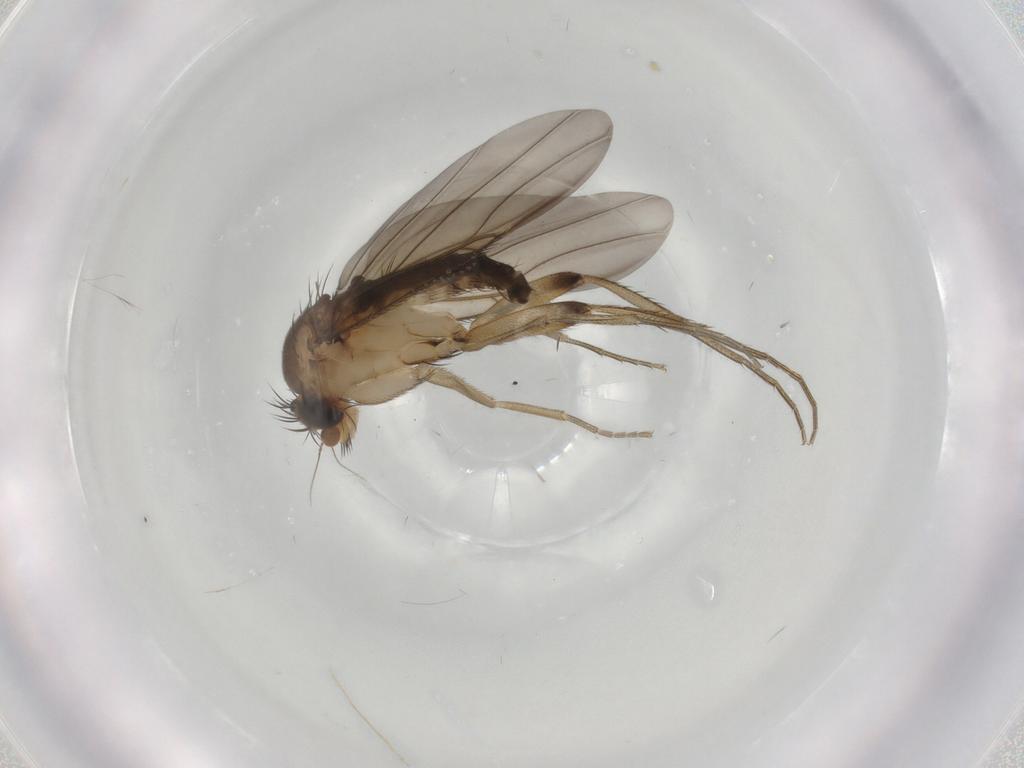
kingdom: Animalia
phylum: Arthropoda
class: Insecta
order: Diptera
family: Phoridae
